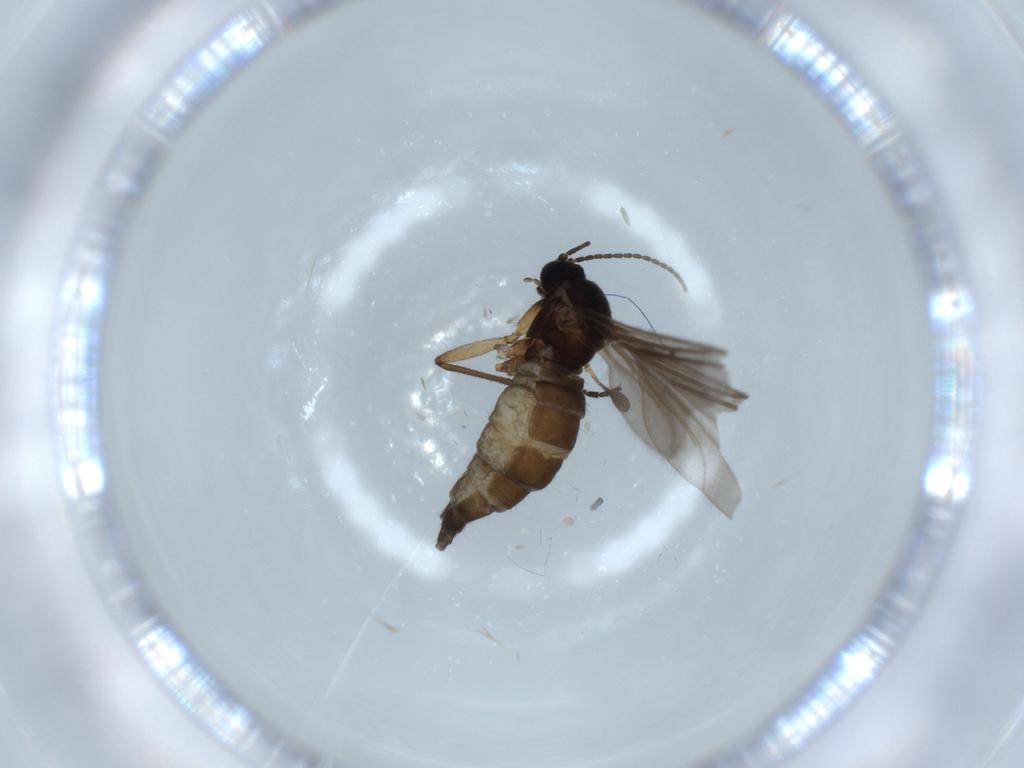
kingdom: Animalia
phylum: Arthropoda
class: Insecta
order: Diptera
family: Sciaridae
